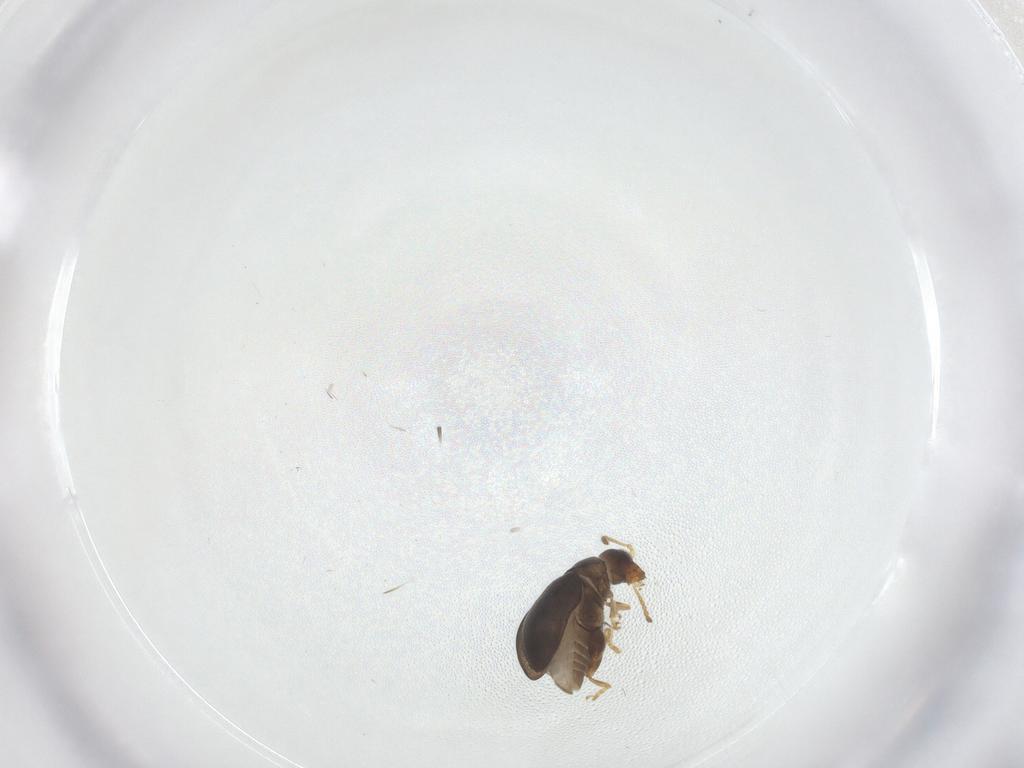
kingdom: Animalia
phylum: Arthropoda
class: Insecta
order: Coleoptera
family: Chrysomelidae
